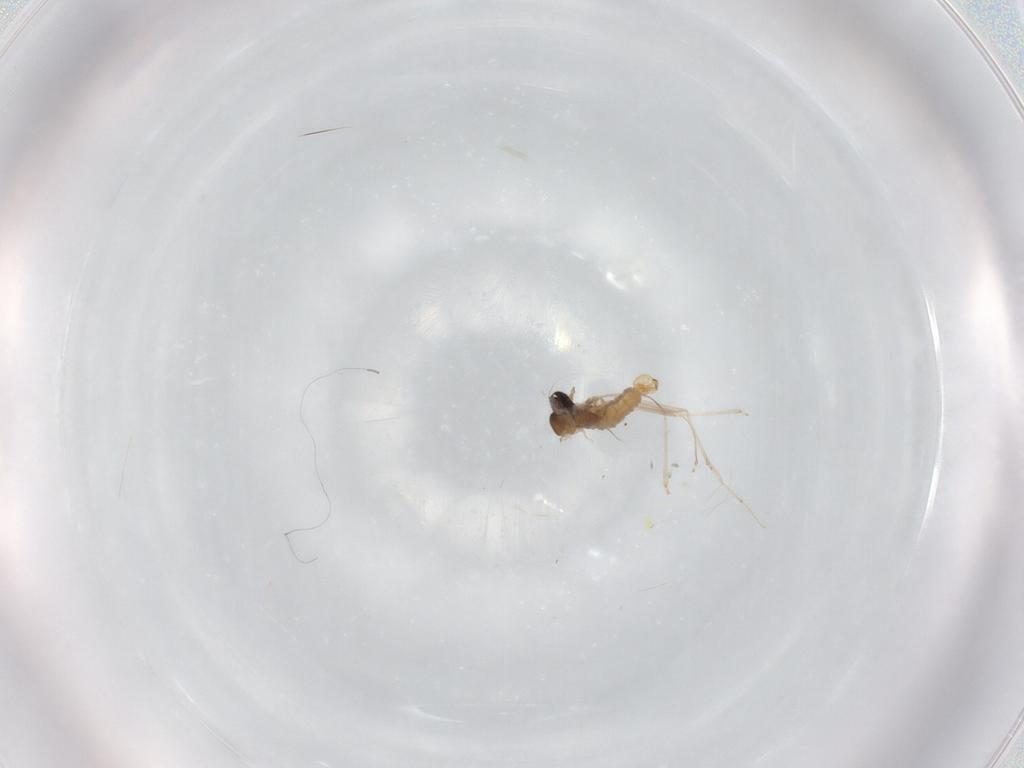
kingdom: Animalia
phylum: Arthropoda
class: Insecta
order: Diptera
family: Cecidomyiidae
